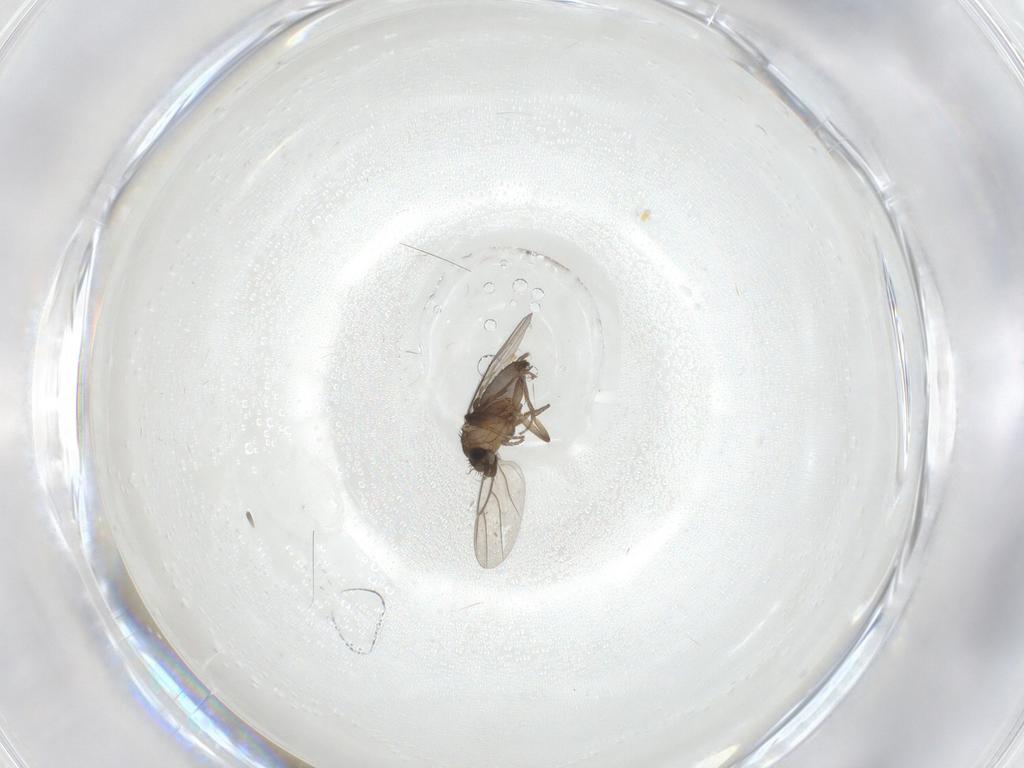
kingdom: Animalia
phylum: Arthropoda
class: Insecta
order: Diptera
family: Phoridae
